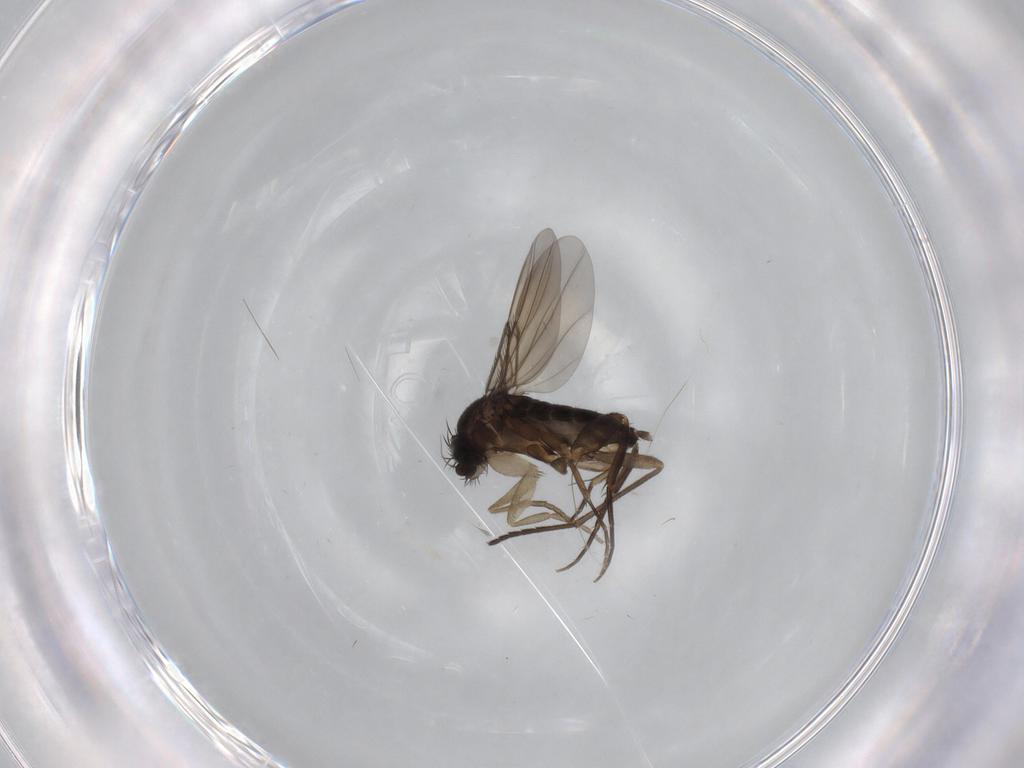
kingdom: Animalia
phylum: Arthropoda
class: Insecta
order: Diptera
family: Phoridae
